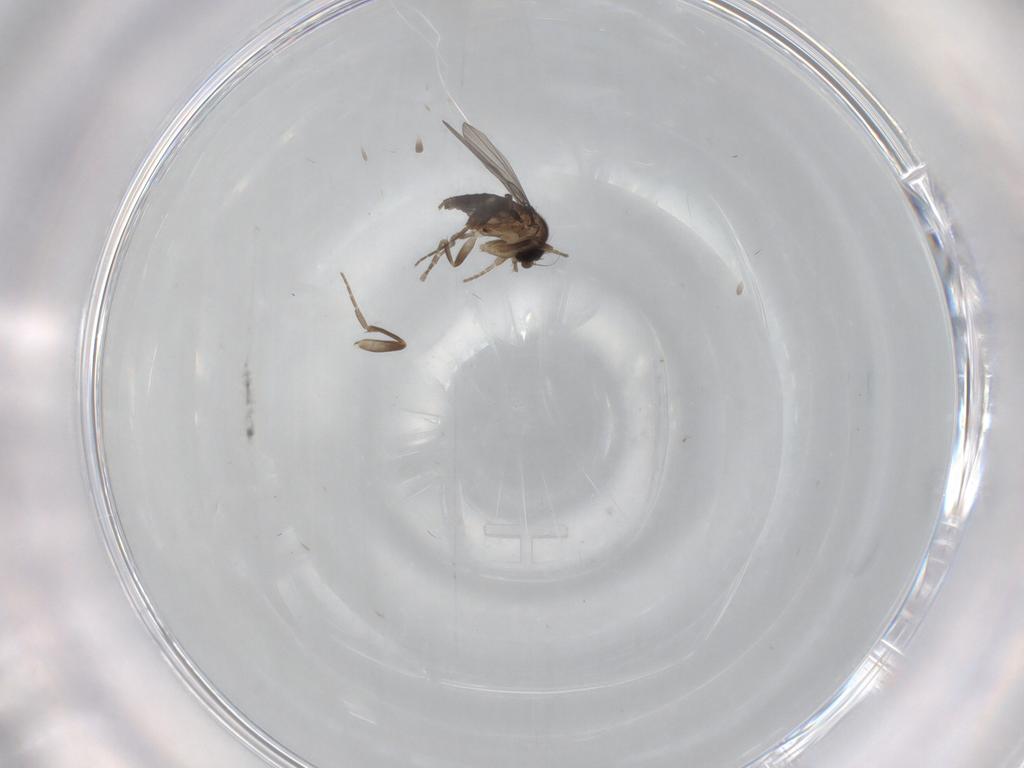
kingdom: Animalia
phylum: Arthropoda
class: Insecta
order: Diptera
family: Phoridae
